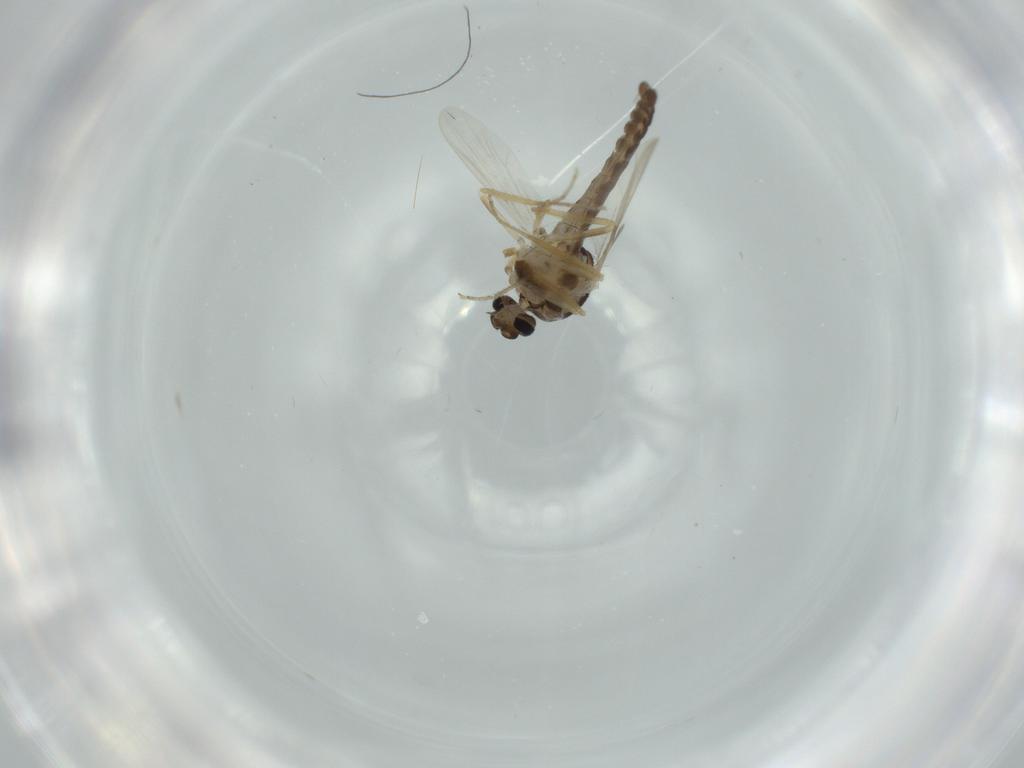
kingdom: Animalia
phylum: Arthropoda
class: Insecta
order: Diptera
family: Ceratopogonidae
